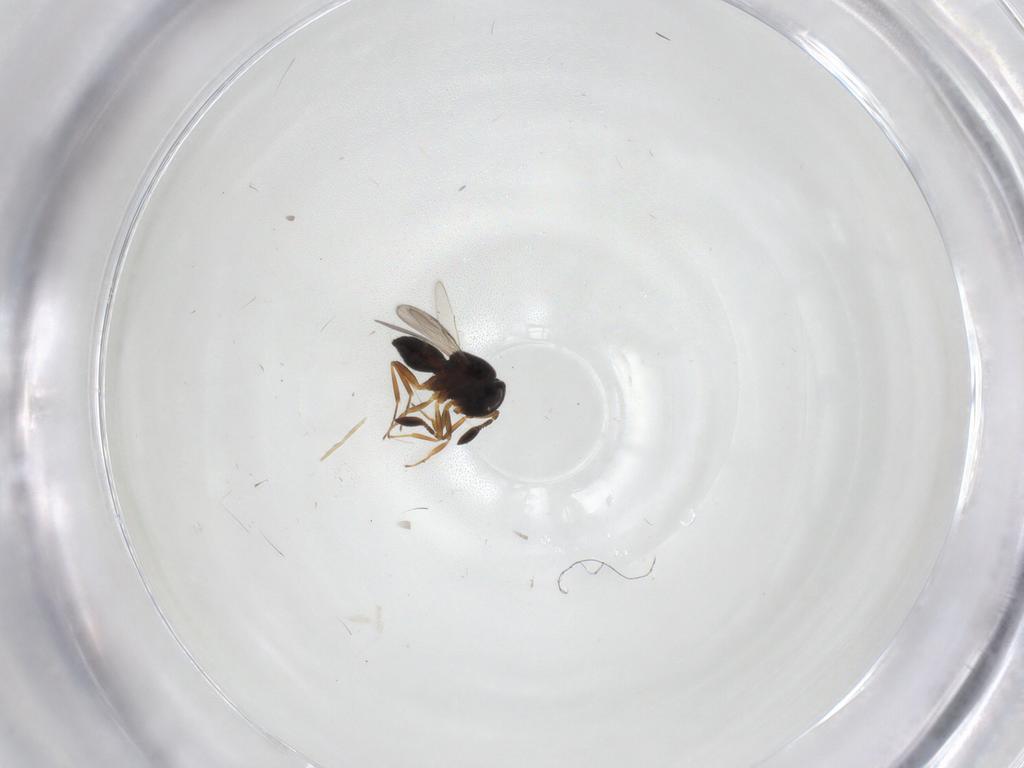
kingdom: Animalia
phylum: Arthropoda
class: Insecta
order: Hymenoptera
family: Scelionidae
